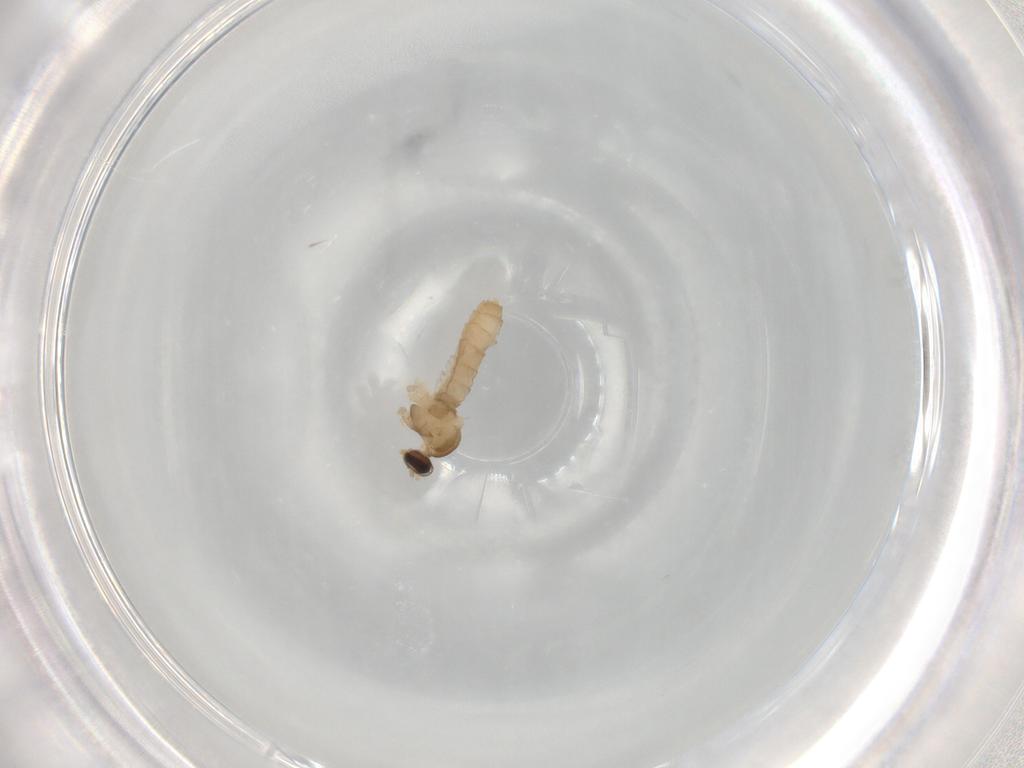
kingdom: Animalia
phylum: Arthropoda
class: Insecta
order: Diptera
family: Cecidomyiidae
